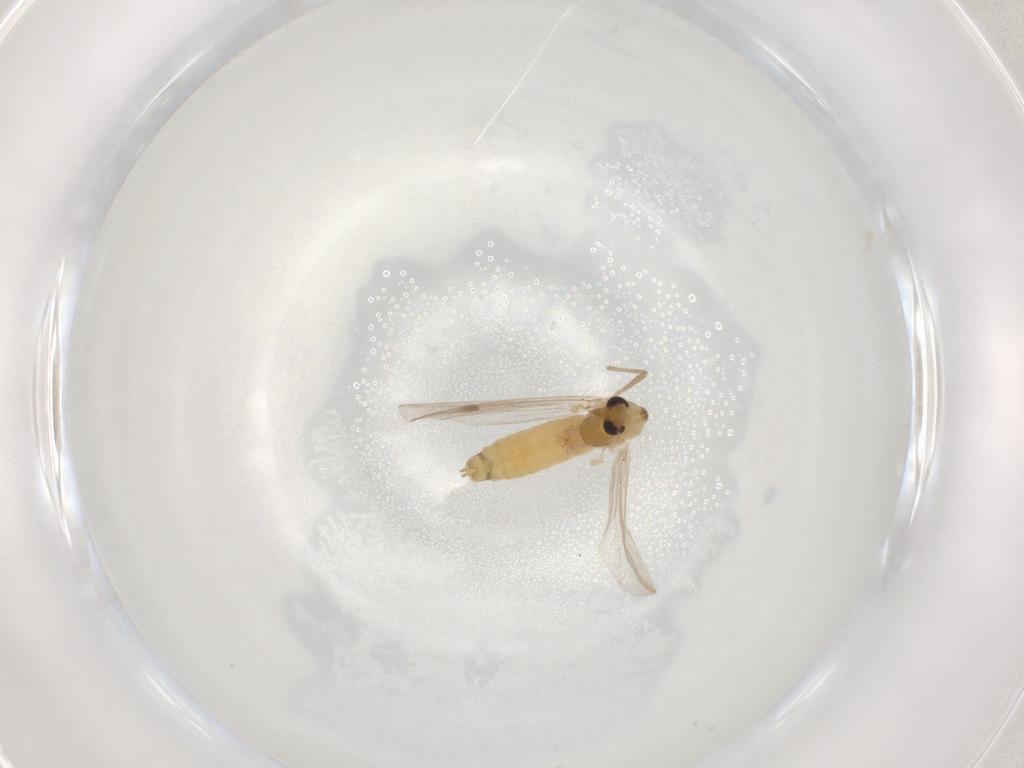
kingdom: Animalia
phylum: Arthropoda
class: Insecta
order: Diptera
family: Chironomidae
